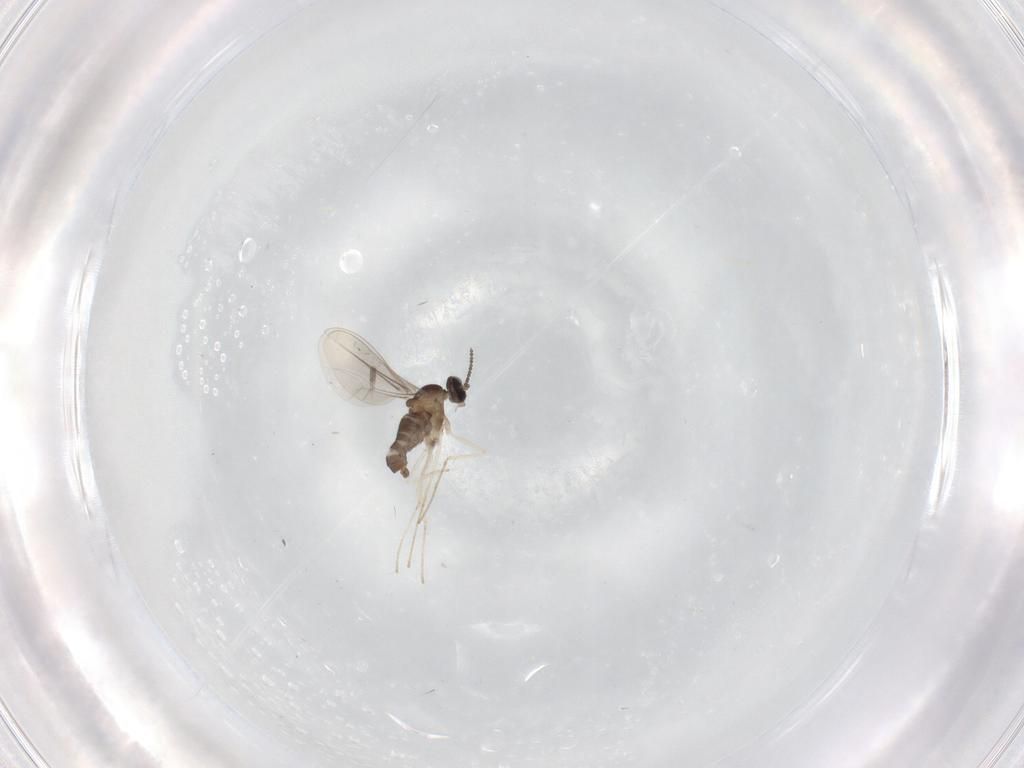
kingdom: Animalia
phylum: Arthropoda
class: Insecta
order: Diptera
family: Cecidomyiidae
